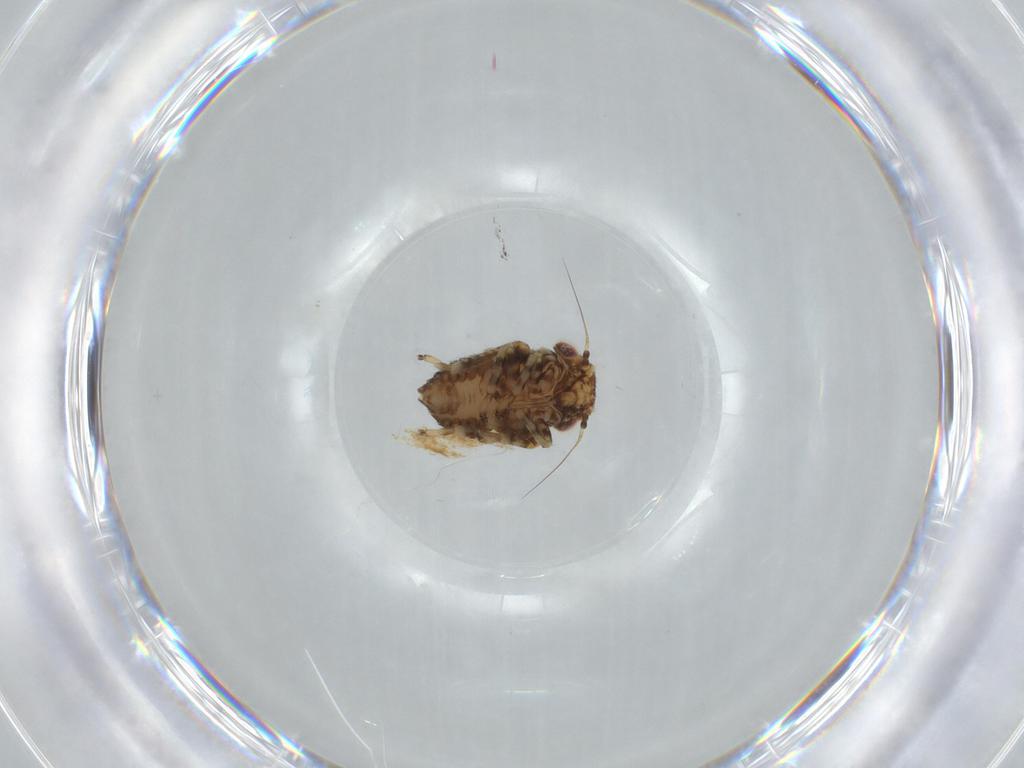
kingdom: Animalia
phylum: Arthropoda
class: Insecta
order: Hemiptera
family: Cicadellidae
